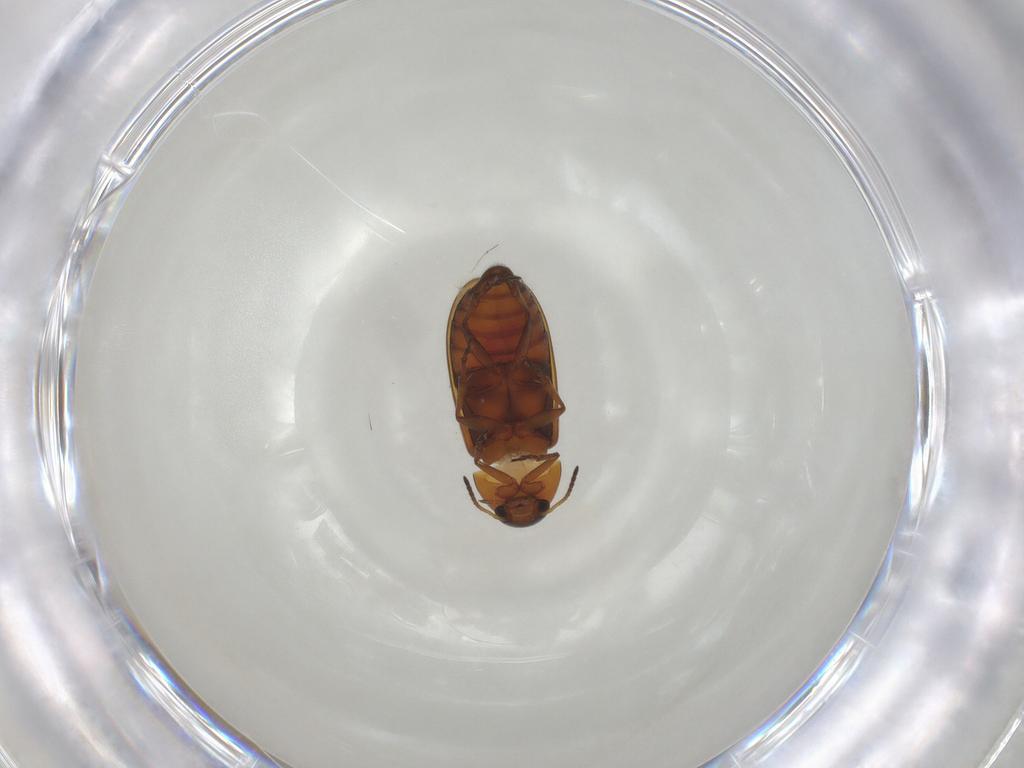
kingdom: Animalia
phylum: Arthropoda
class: Insecta
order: Coleoptera
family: Scraptiidae
